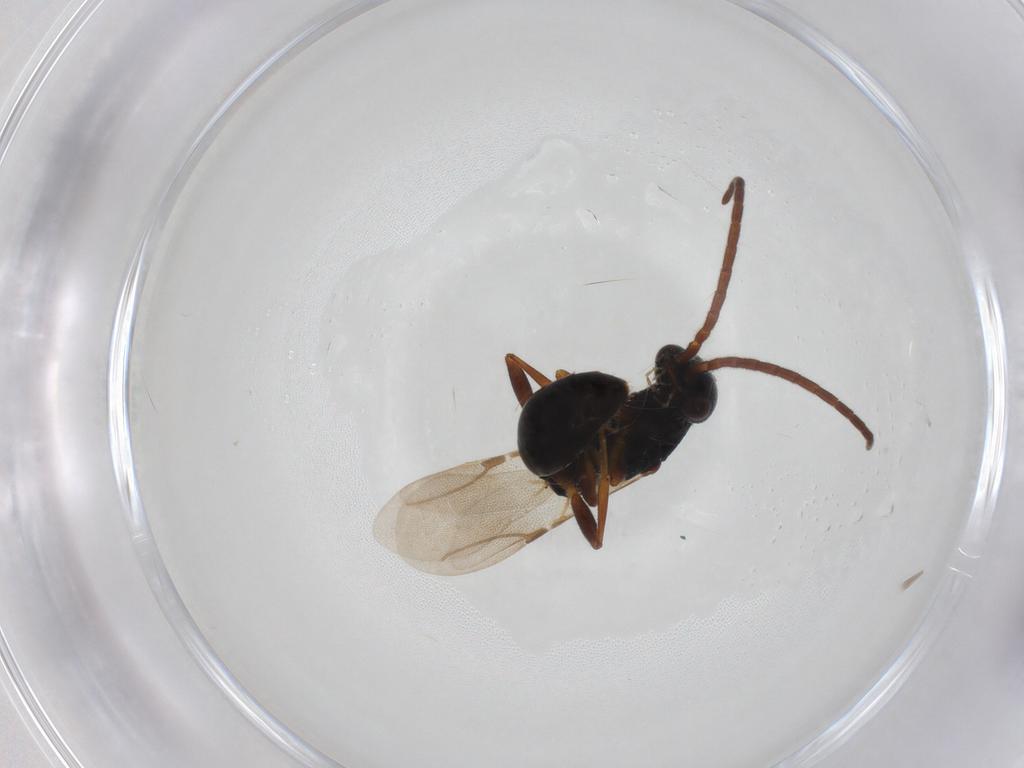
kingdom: Animalia
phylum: Arthropoda
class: Insecta
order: Hymenoptera
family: Bethylidae
